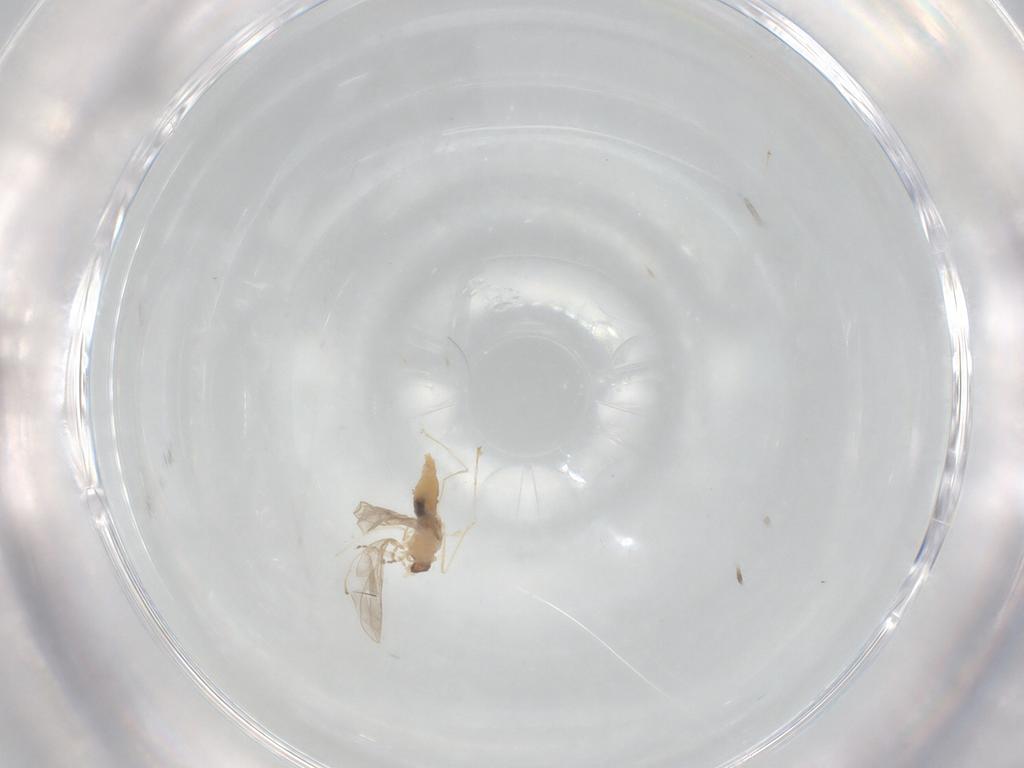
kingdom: Animalia
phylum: Arthropoda
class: Insecta
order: Diptera
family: Cecidomyiidae
